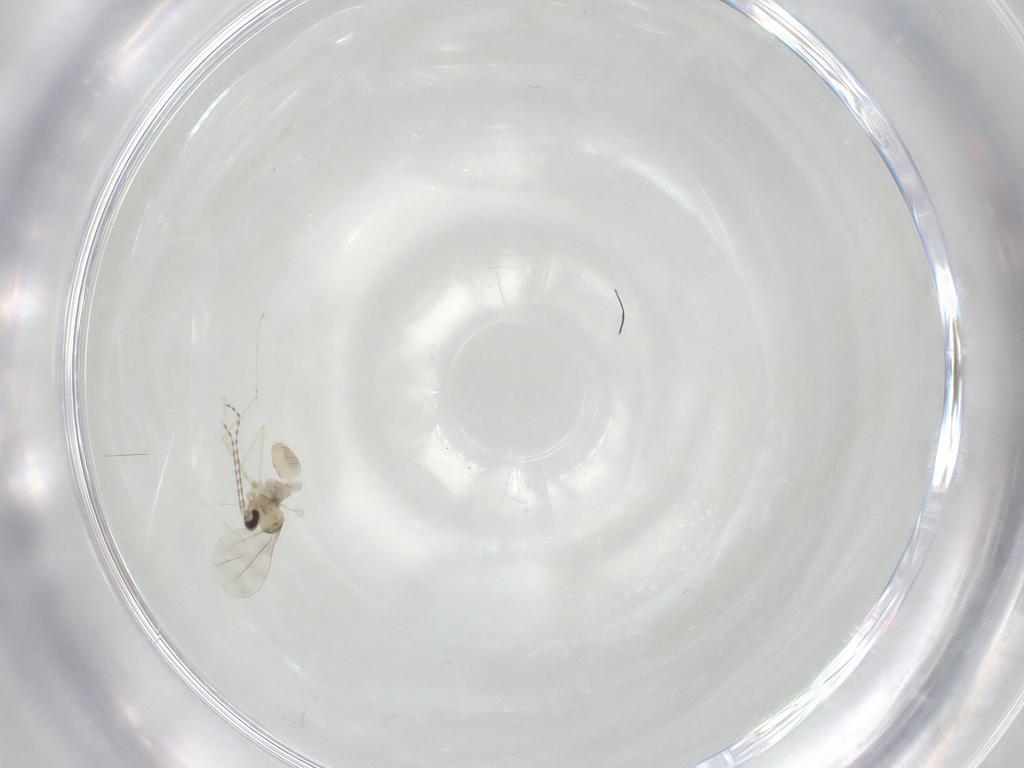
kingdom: Animalia
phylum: Arthropoda
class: Insecta
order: Diptera
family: Cecidomyiidae
